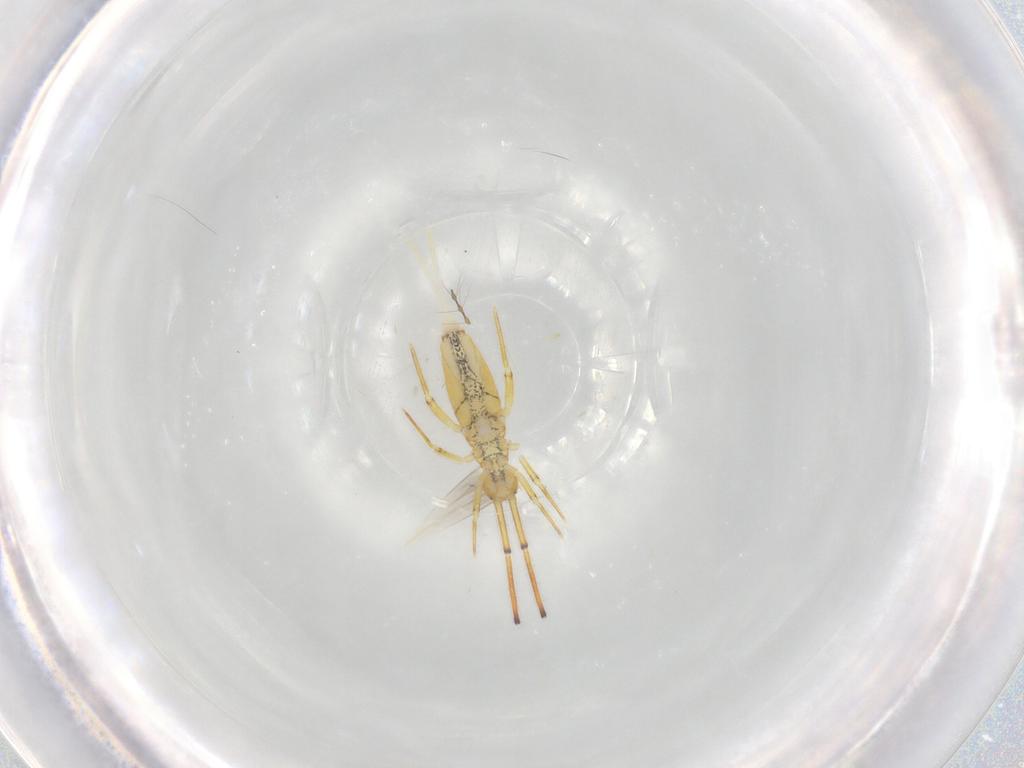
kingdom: Animalia
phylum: Arthropoda
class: Collembola
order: Entomobryomorpha
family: Entomobryidae
